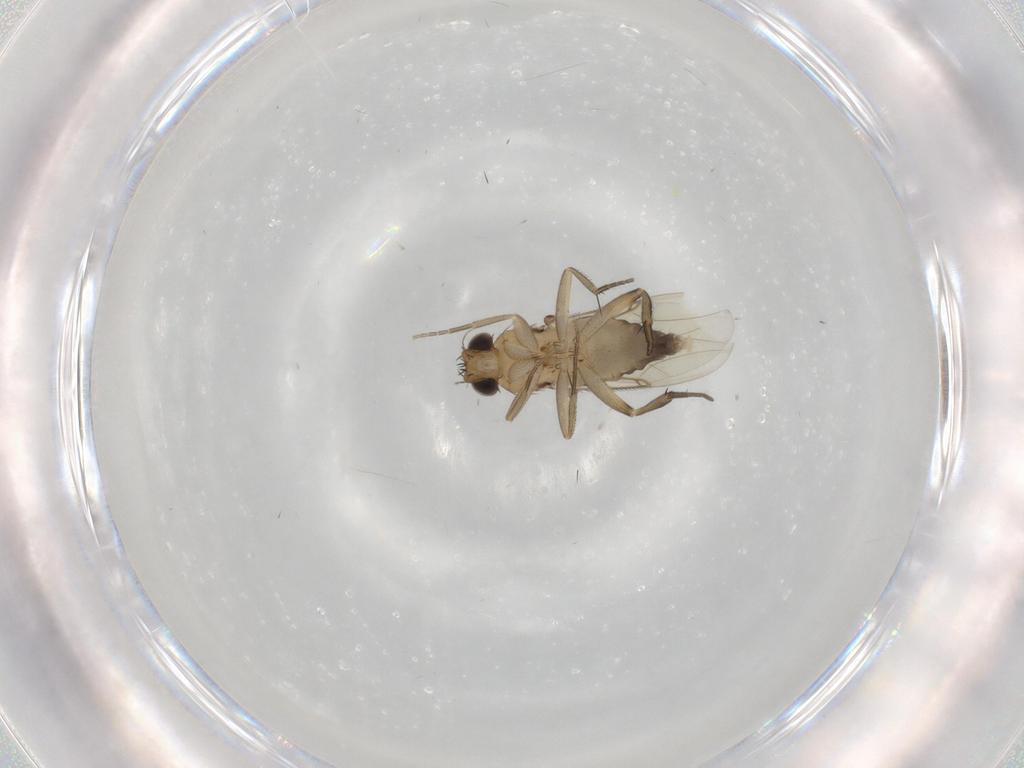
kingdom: Animalia
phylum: Arthropoda
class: Insecta
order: Diptera
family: Phoridae
